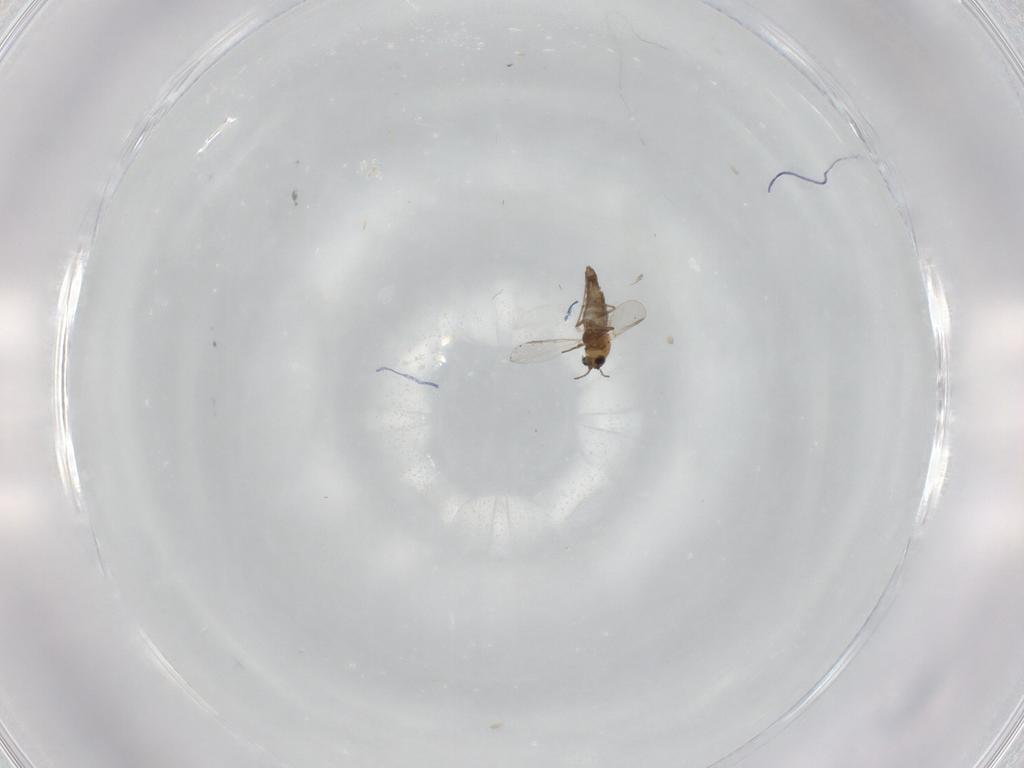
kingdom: Animalia
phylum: Arthropoda
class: Insecta
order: Diptera
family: Chironomidae
